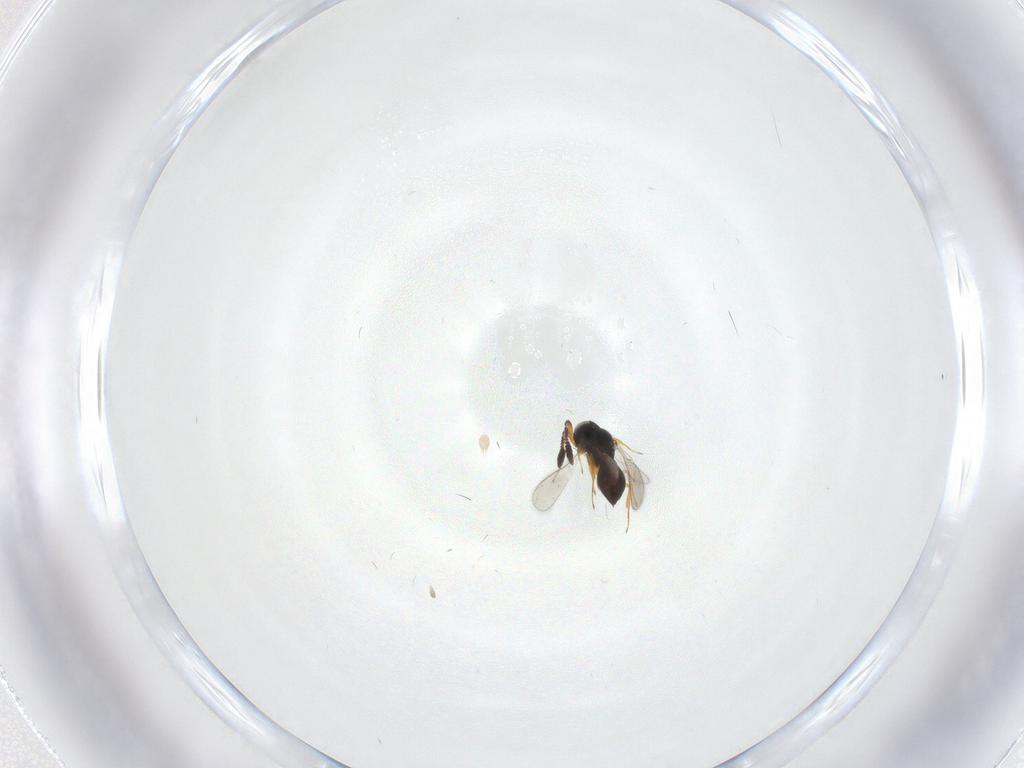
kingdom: Animalia
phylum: Arthropoda
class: Insecta
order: Hymenoptera
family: Scelionidae
